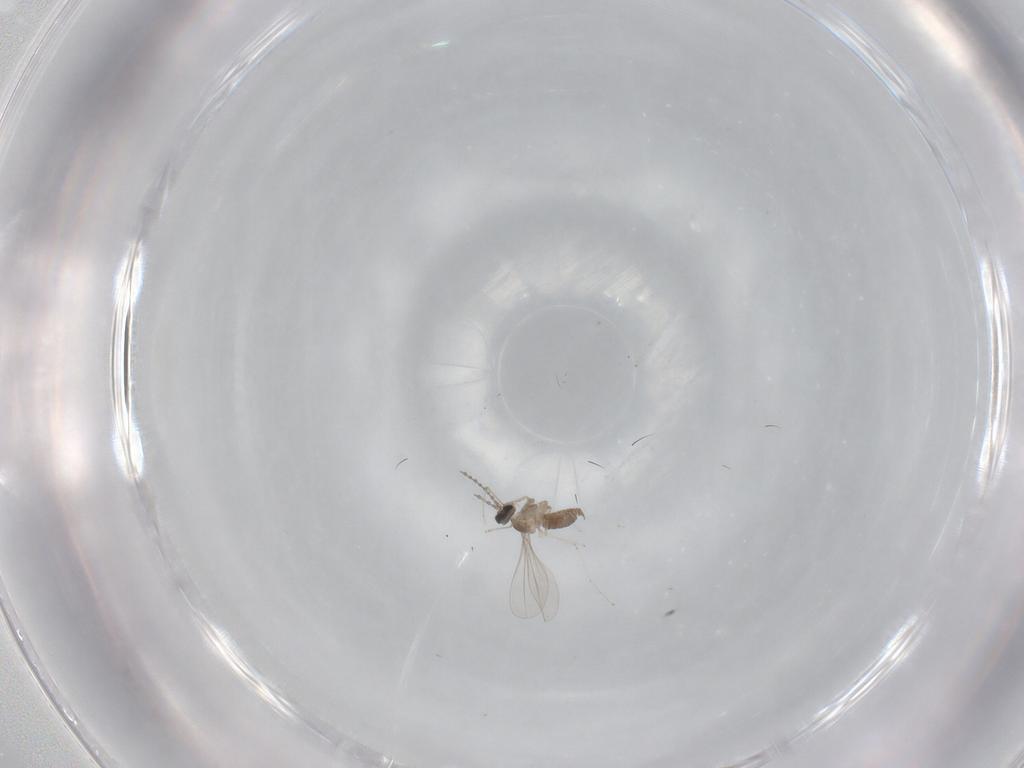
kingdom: Animalia
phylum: Arthropoda
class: Insecta
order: Diptera
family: Cecidomyiidae
